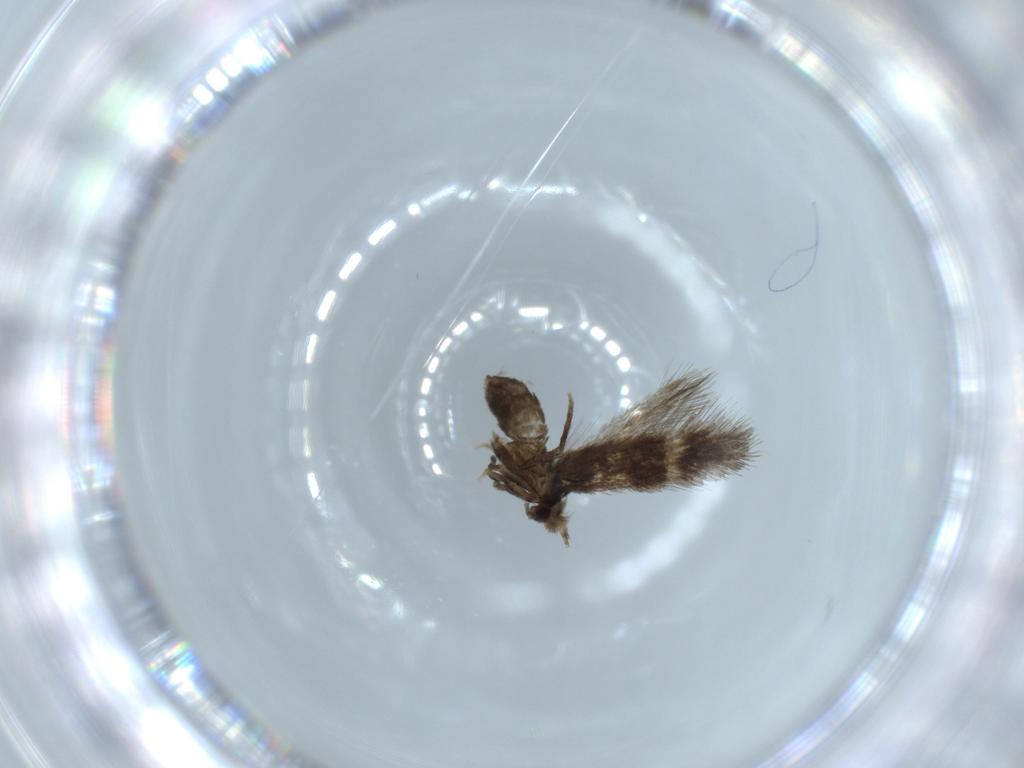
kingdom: Animalia
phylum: Arthropoda
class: Insecta
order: Lepidoptera
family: Nepticulidae
